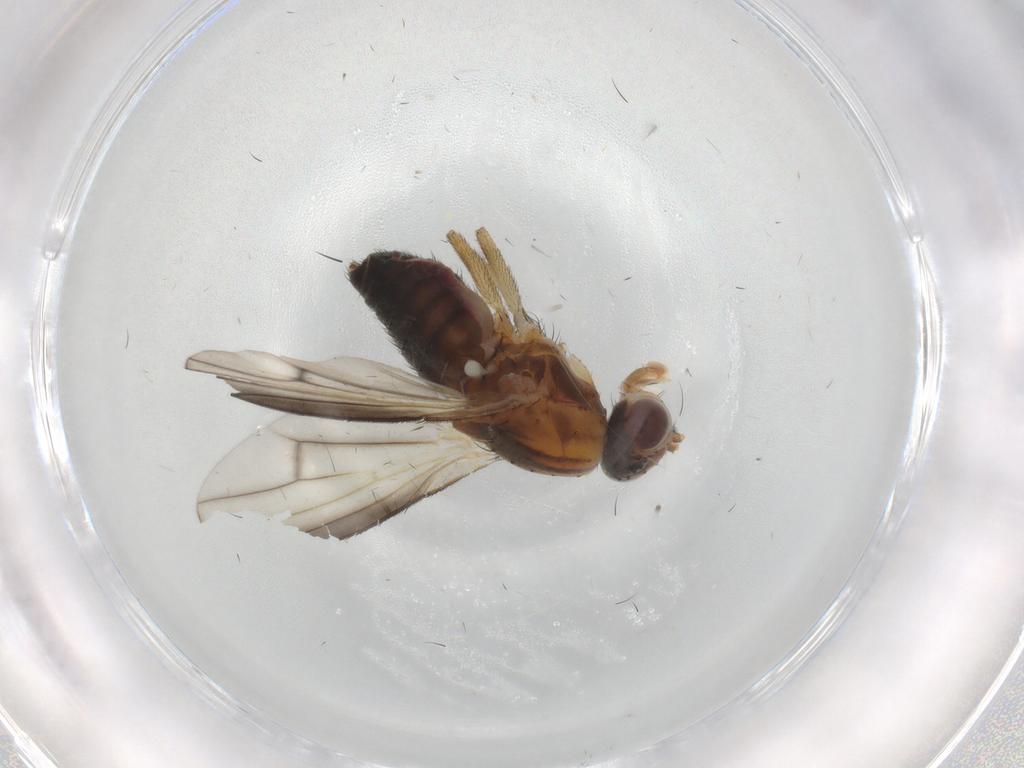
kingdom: Animalia
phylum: Arthropoda
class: Insecta
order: Diptera
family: Heleomyzidae
